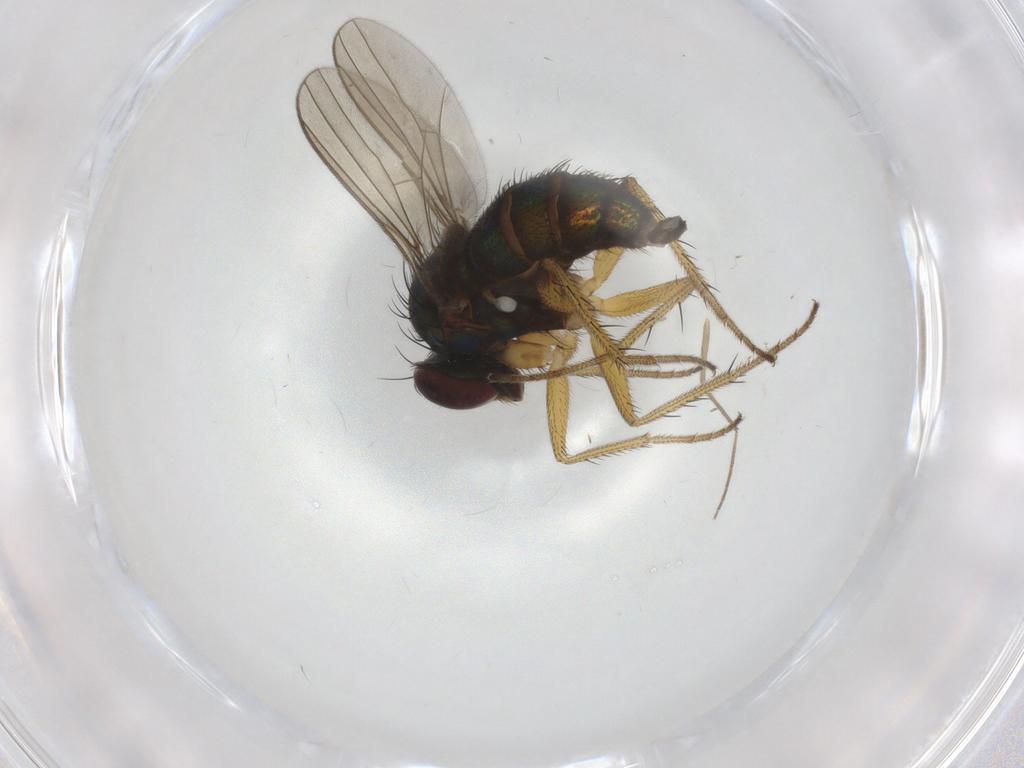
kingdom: Animalia
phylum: Arthropoda
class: Insecta
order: Diptera
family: Dolichopodidae
